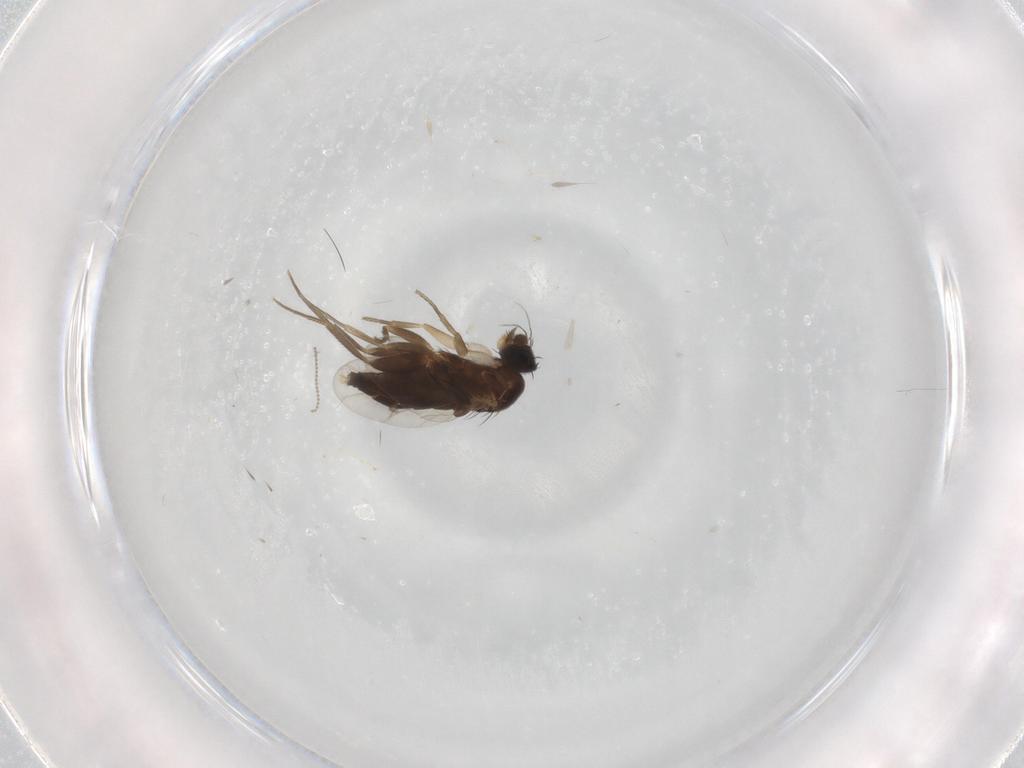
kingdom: Animalia
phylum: Arthropoda
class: Insecta
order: Diptera
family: Phoridae
